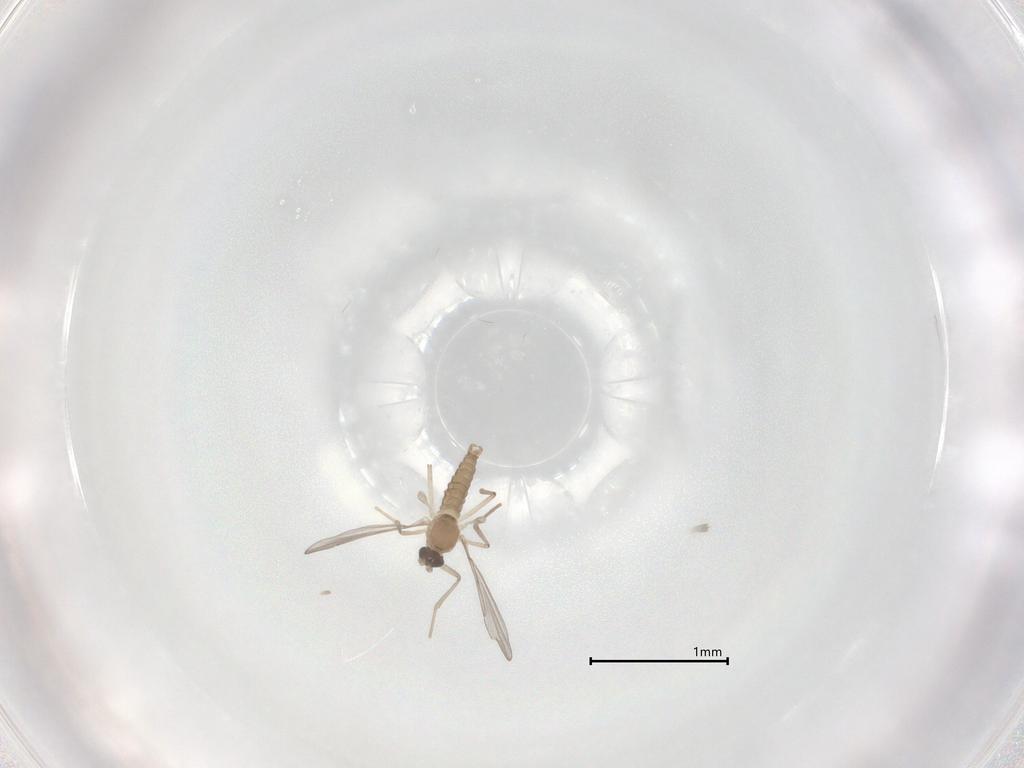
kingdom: Animalia
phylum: Arthropoda
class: Insecta
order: Diptera
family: Cecidomyiidae
